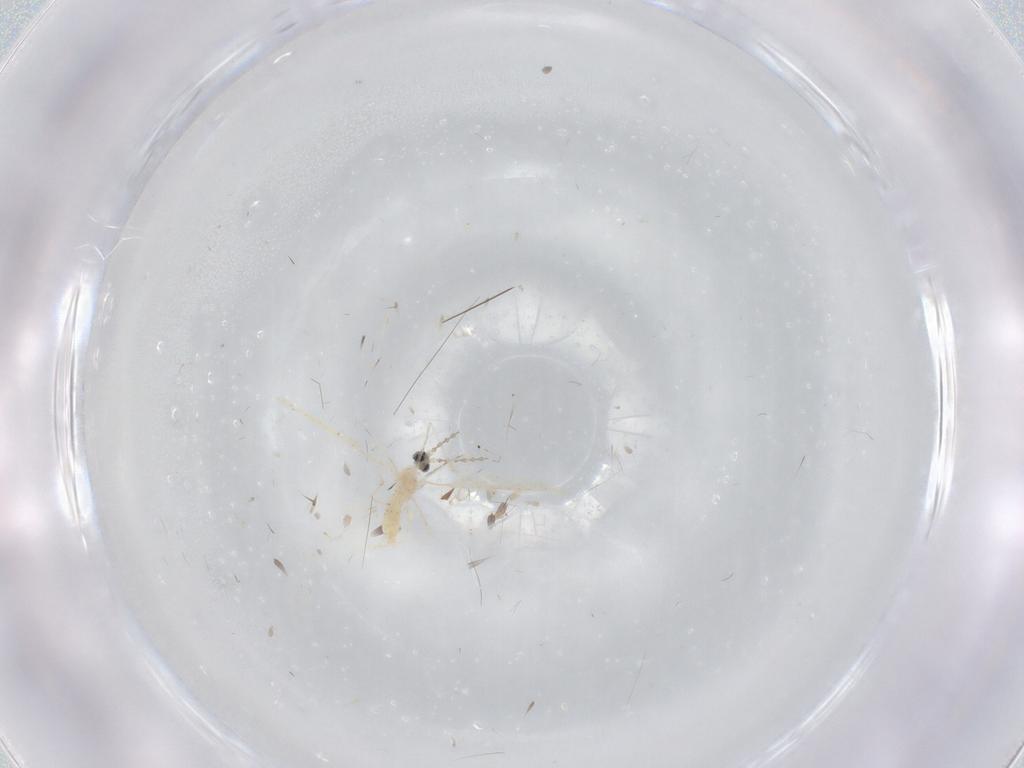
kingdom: Animalia
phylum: Arthropoda
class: Insecta
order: Diptera
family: Cecidomyiidae
